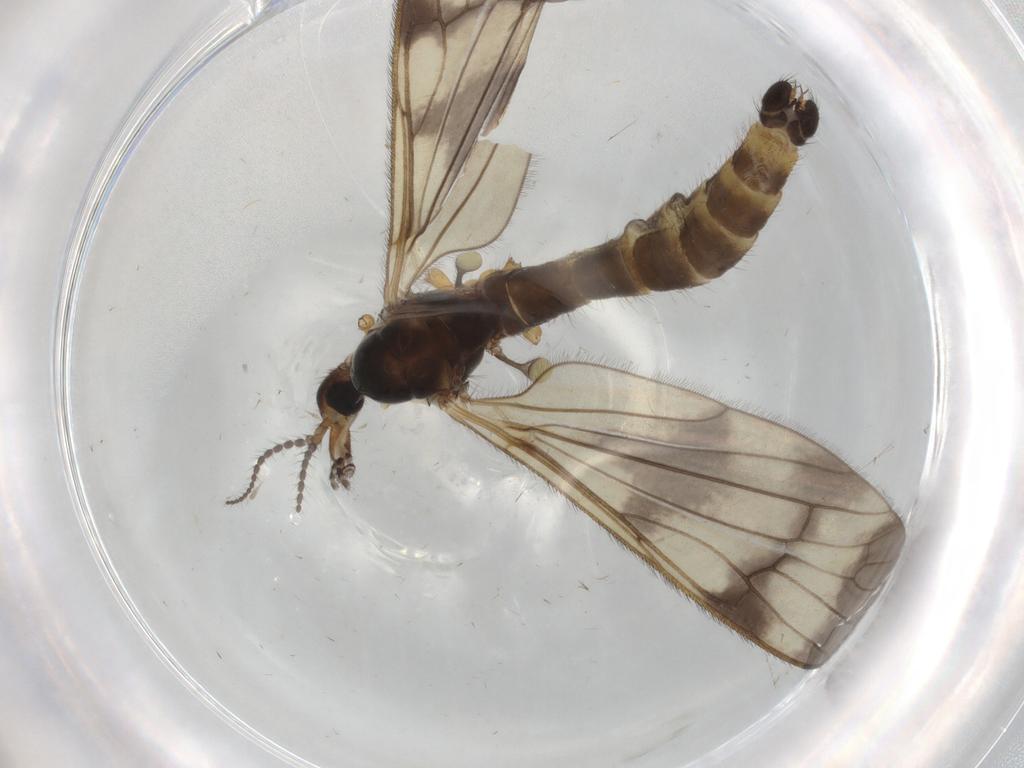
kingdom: Animalia
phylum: Arthropoda
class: Insecta
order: Diptera
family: Limoniidae
